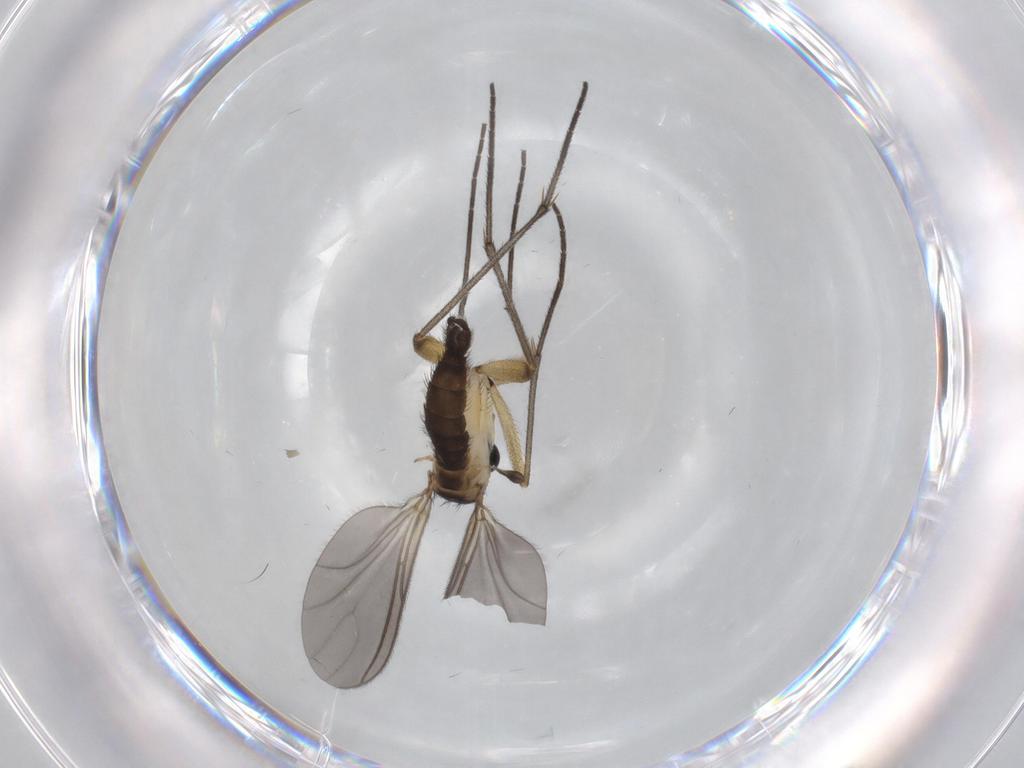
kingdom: Animalia
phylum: Arthropoda
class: Insecta
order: Diptera
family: Sciaridae
